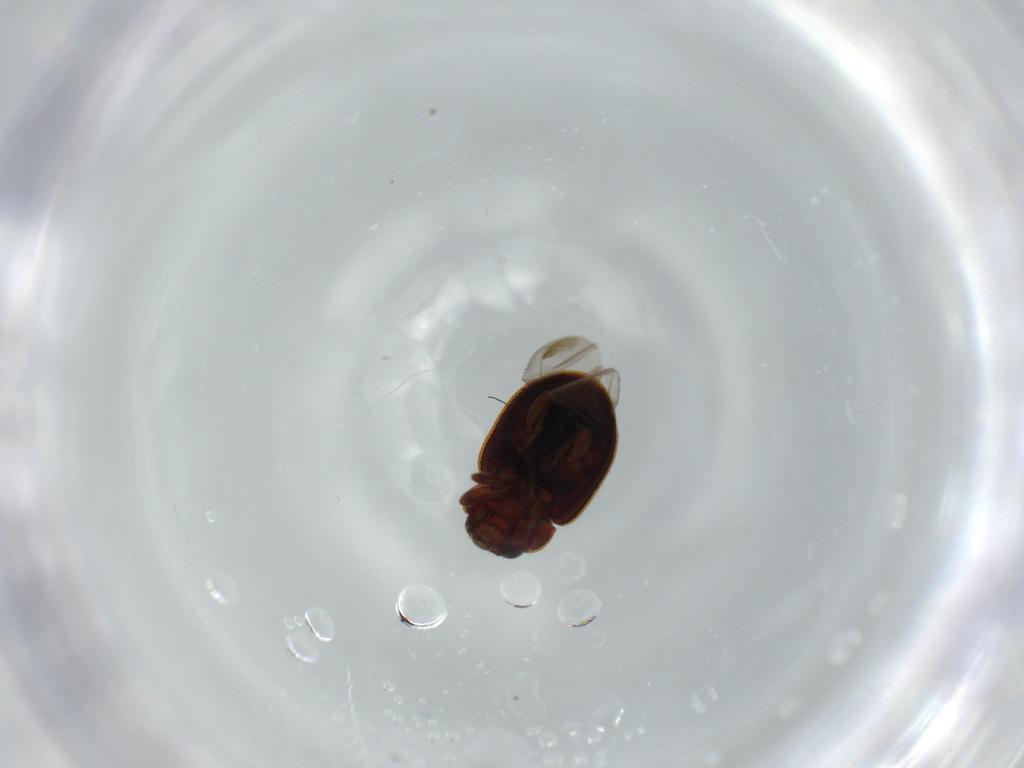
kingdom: Animalia
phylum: Arthropoda
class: Insecta
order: Coleoptera
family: Coccinellidae
